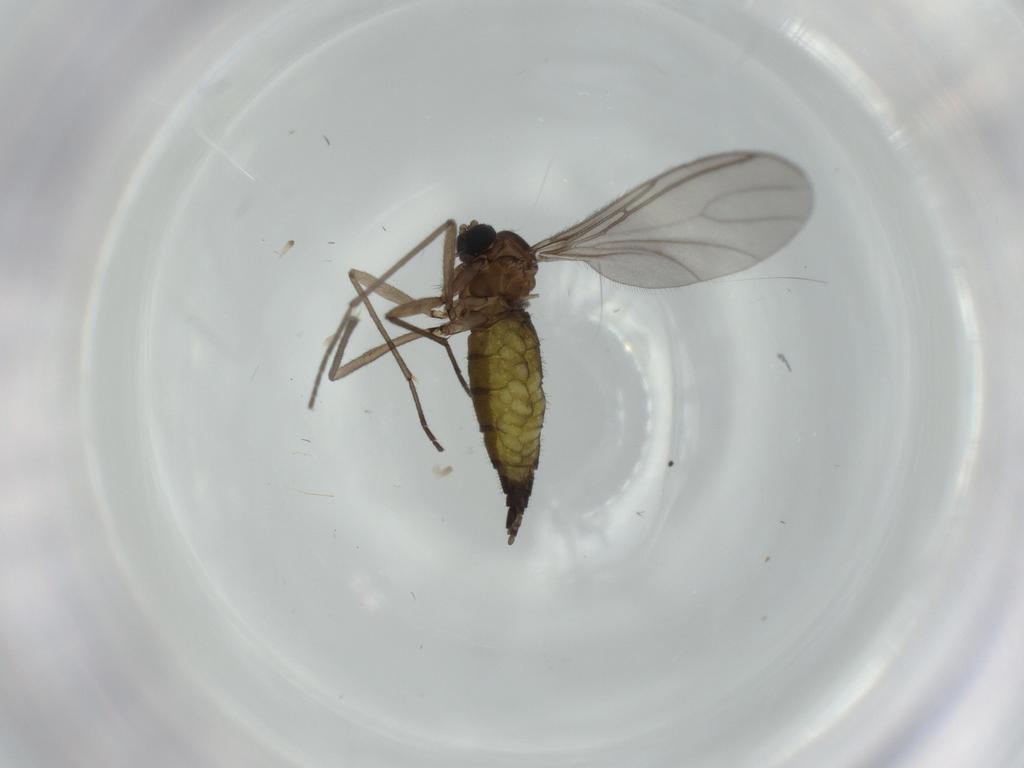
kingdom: Animalia
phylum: Arthropoda
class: Insecta
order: Diptera
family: Sciaridae
